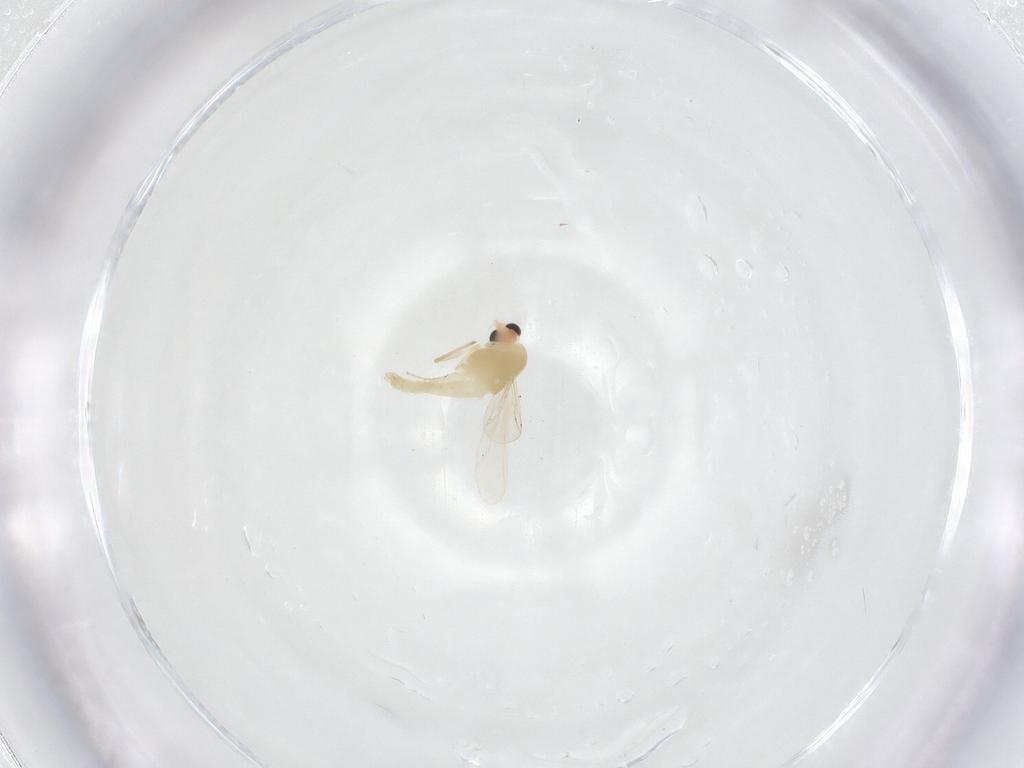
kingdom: Animalia
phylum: Arthropoda
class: Insecta
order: Diptera
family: Chironomidae
